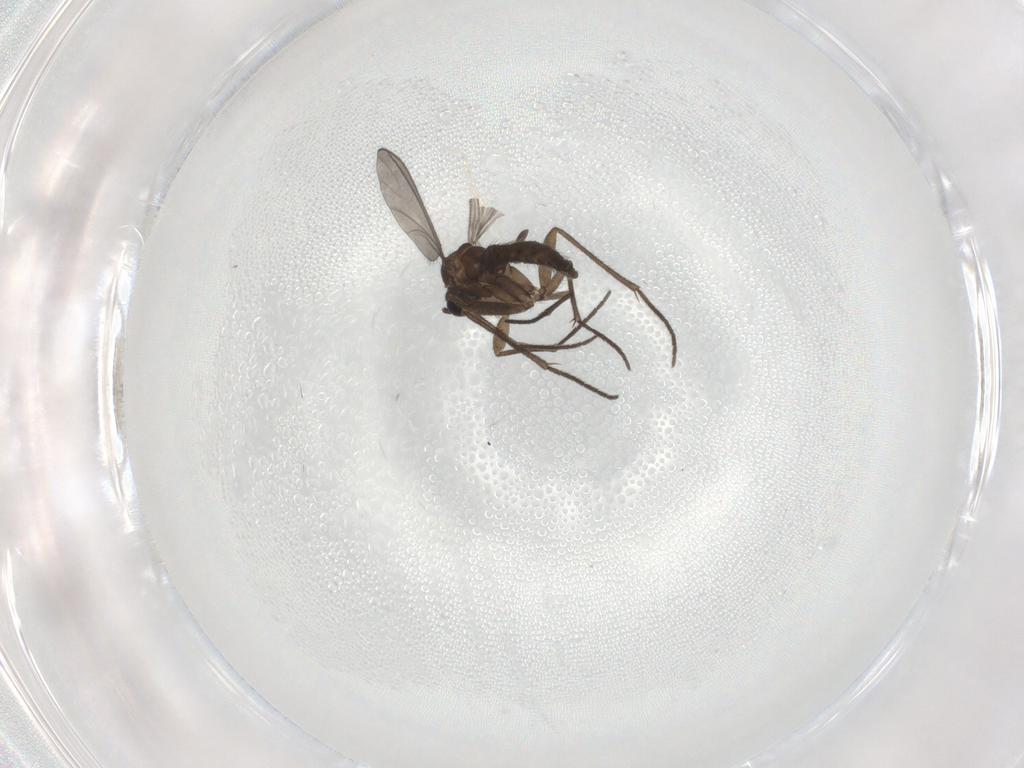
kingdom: Animalia
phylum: Arthropoda
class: Insecta
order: Diptera
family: Sciaridae
